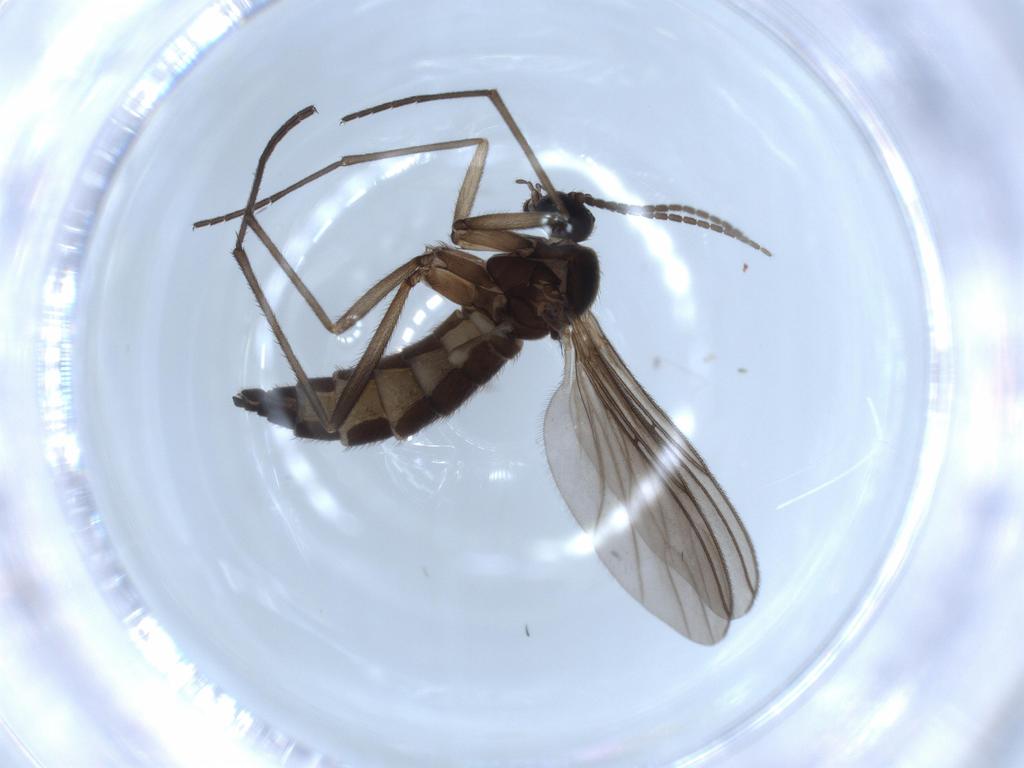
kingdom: Animalia
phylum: Arthropoda
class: Insecta
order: Diptera
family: Sciaridae
